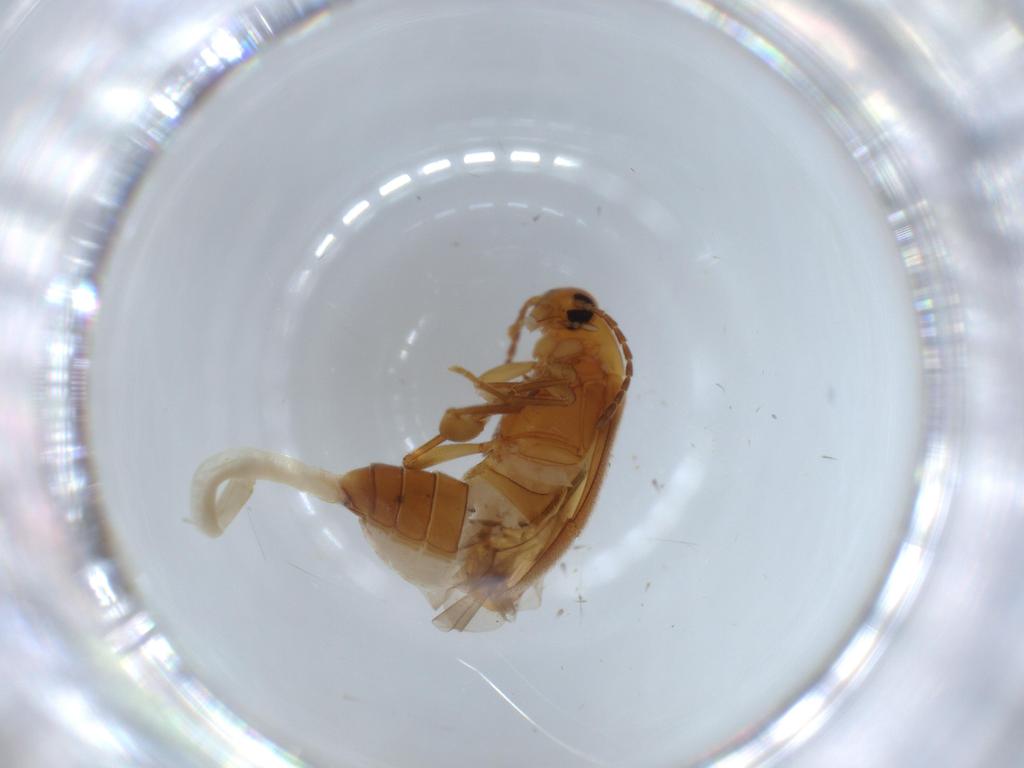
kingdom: Animalia
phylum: Arthropoda
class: Insecta
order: Coleoptera
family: Scraptiidae
